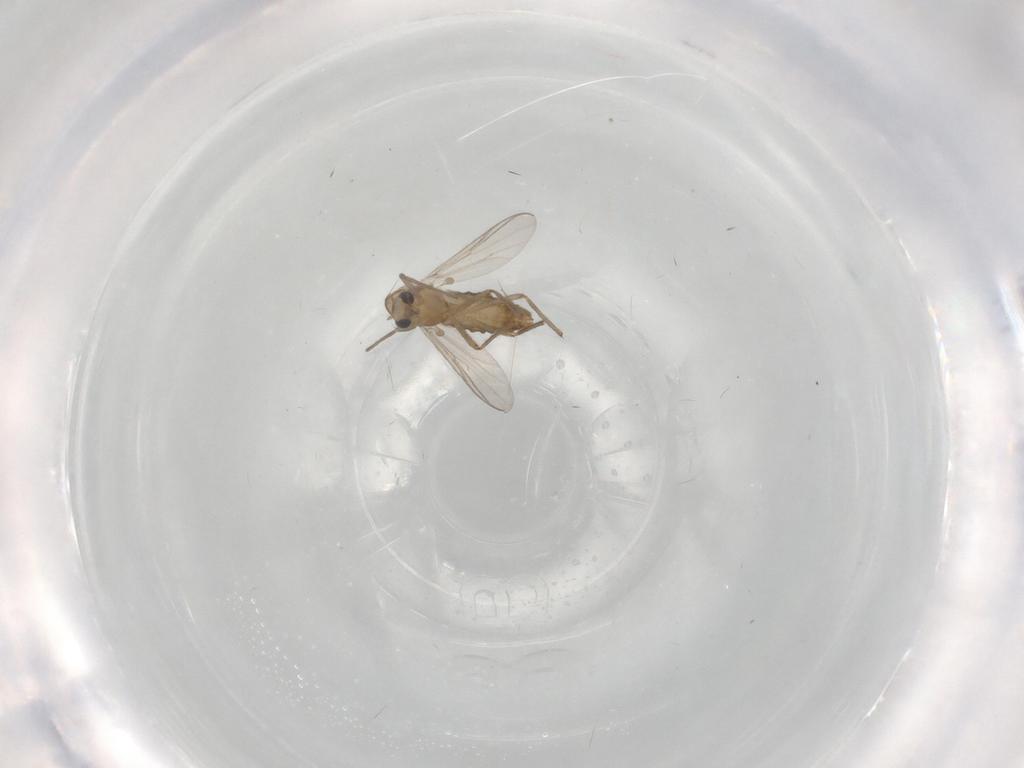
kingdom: Animalia
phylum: Arthropoda
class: Insecta
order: Diptera
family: Chironomidae
